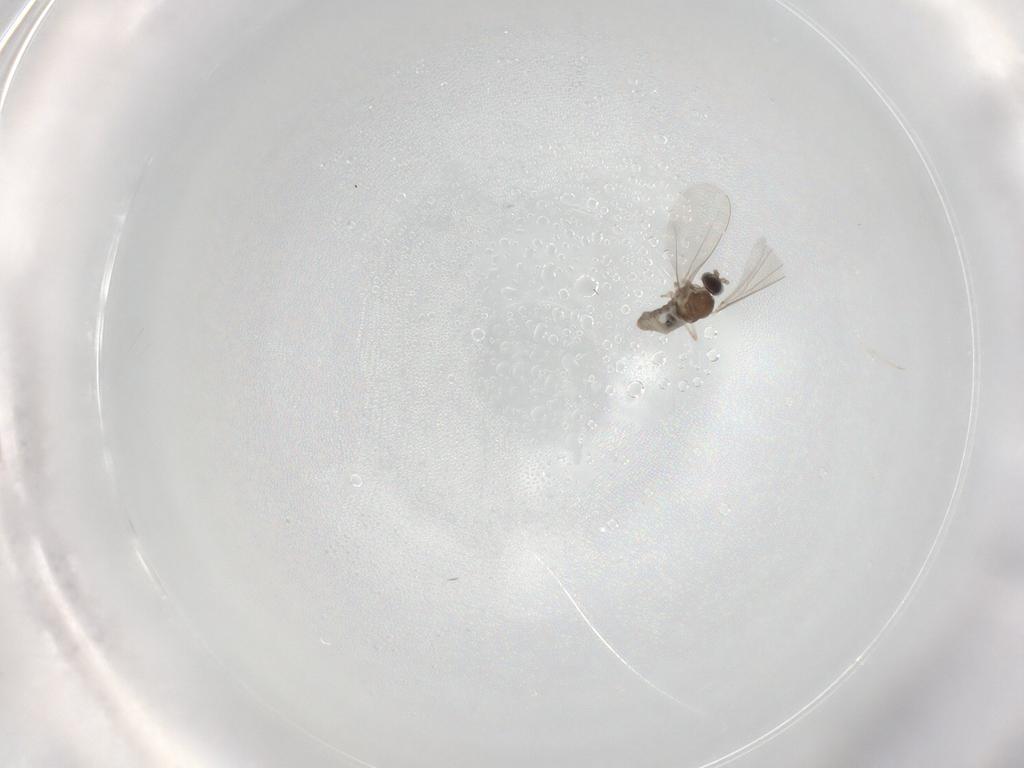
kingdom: Animalia
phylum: Arthropoda
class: Insecta
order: Diptera
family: Cecidomyiidae
